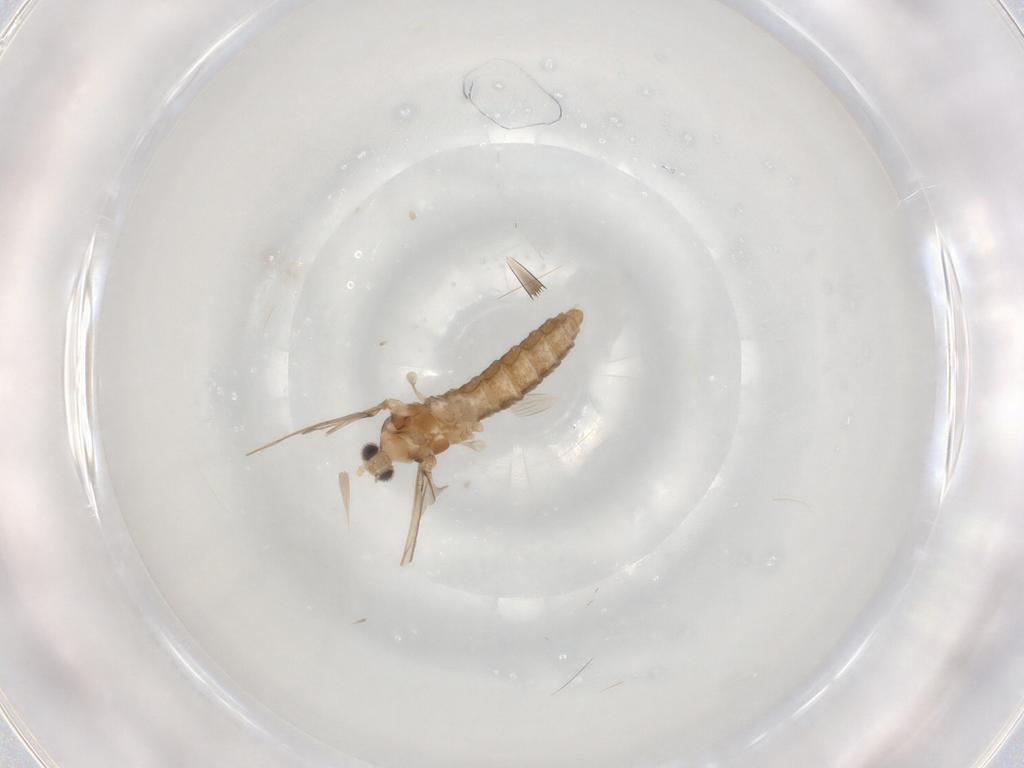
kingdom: Animalia
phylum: Arthropoda
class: Insecta
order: Diptera
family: Cecidomyiidae
